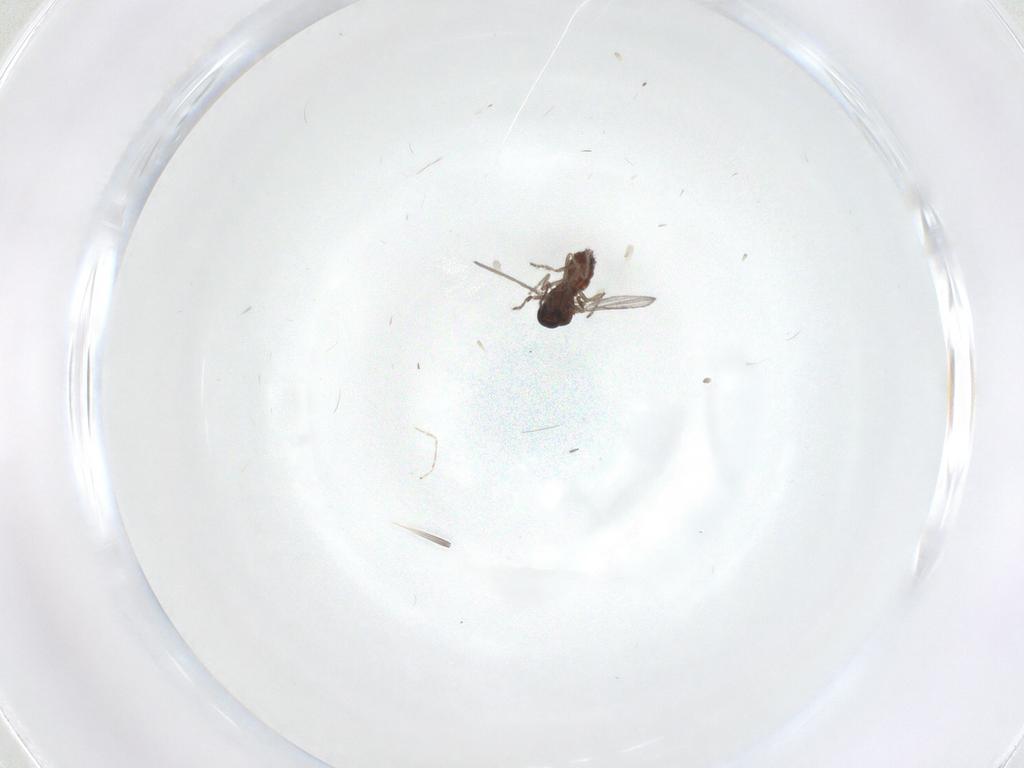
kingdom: Animalia
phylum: Arthropoda
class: Insecta
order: Diptera
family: Ceratopogonidae
